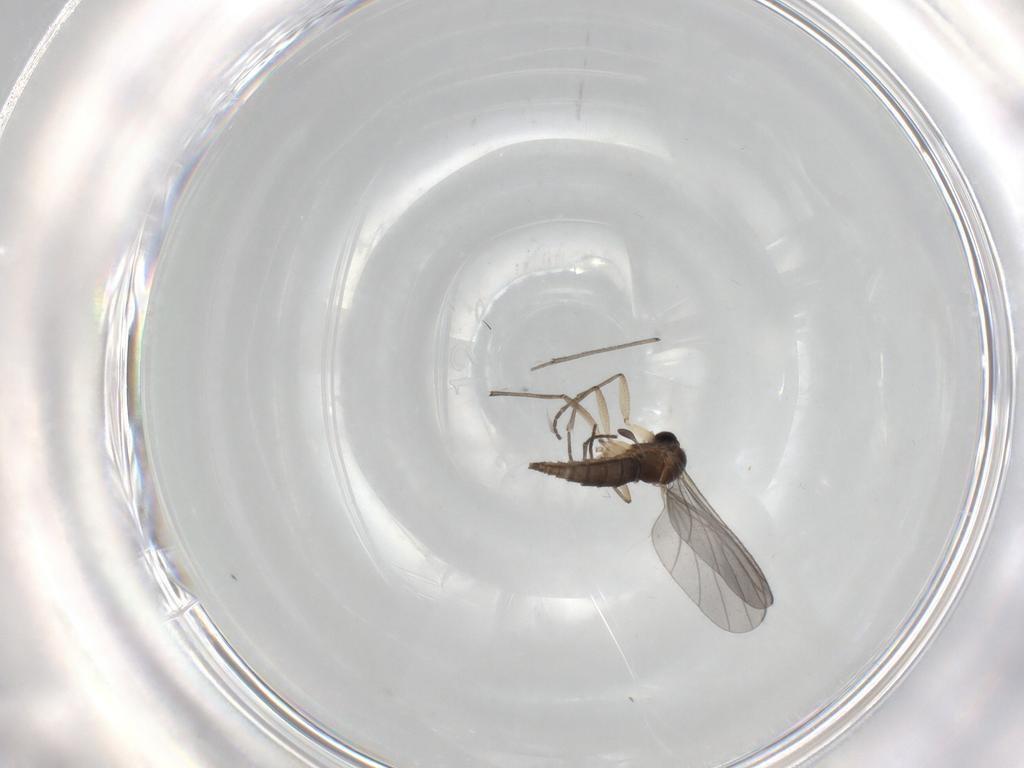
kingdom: Animalia
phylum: Arthropoda
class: Insecta
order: Diptera
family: Sciaridae
